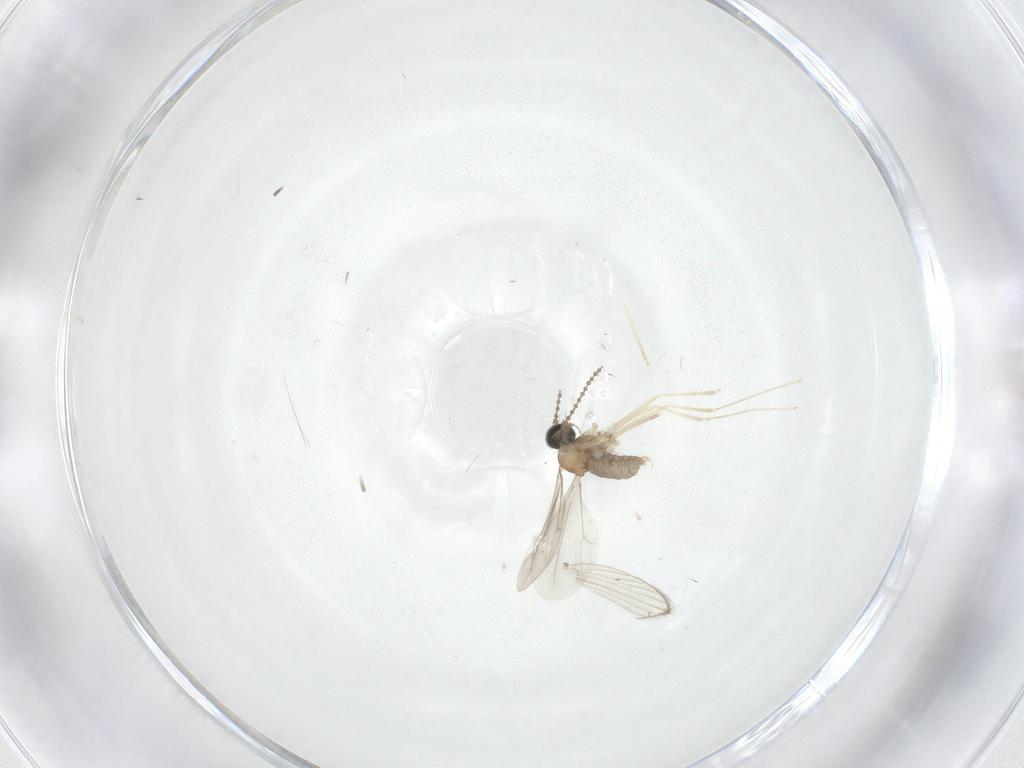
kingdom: Animalia
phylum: Arthropoda
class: Insecta
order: Diptera
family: Cecidomyiidae
